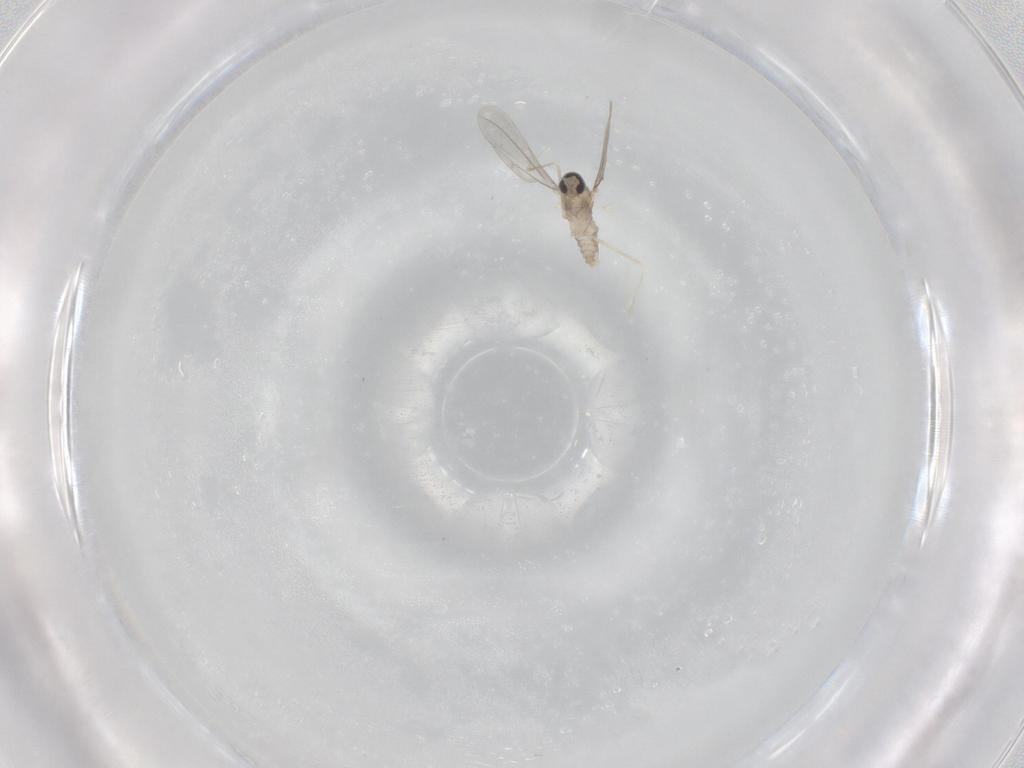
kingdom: Animalia
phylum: Arthropoda
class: Insecta
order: Diptera
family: Cecidomyiidae
